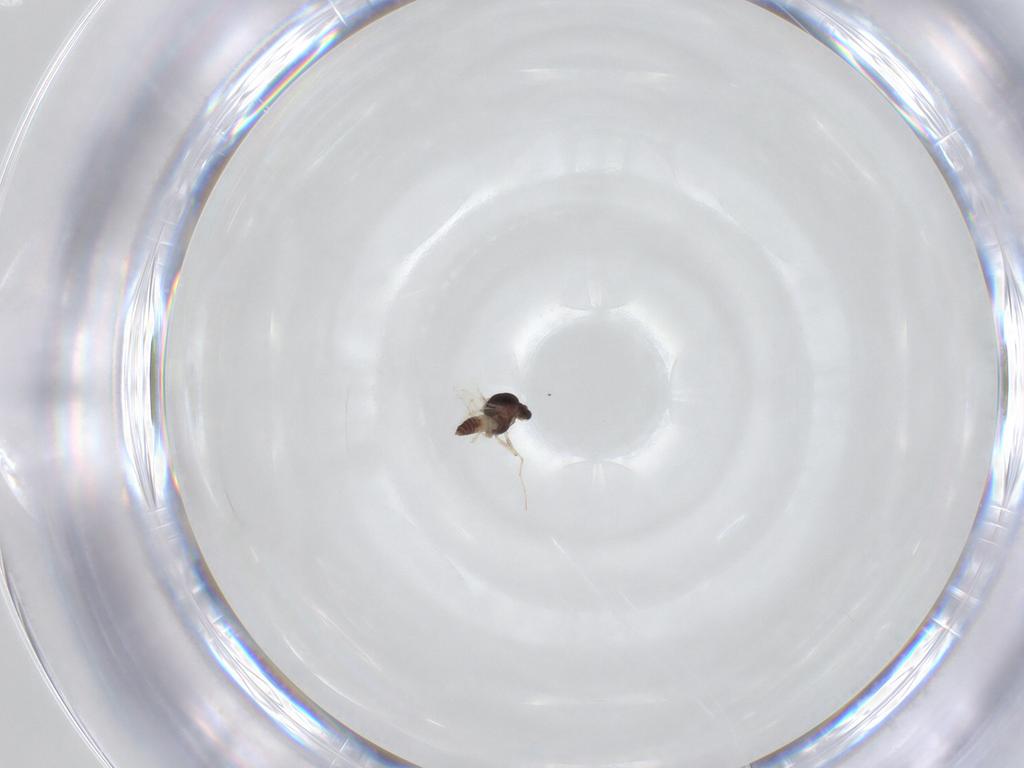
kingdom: Animalia
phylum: Arthropoda
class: Insecta
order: Diptera
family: Chironomidae
